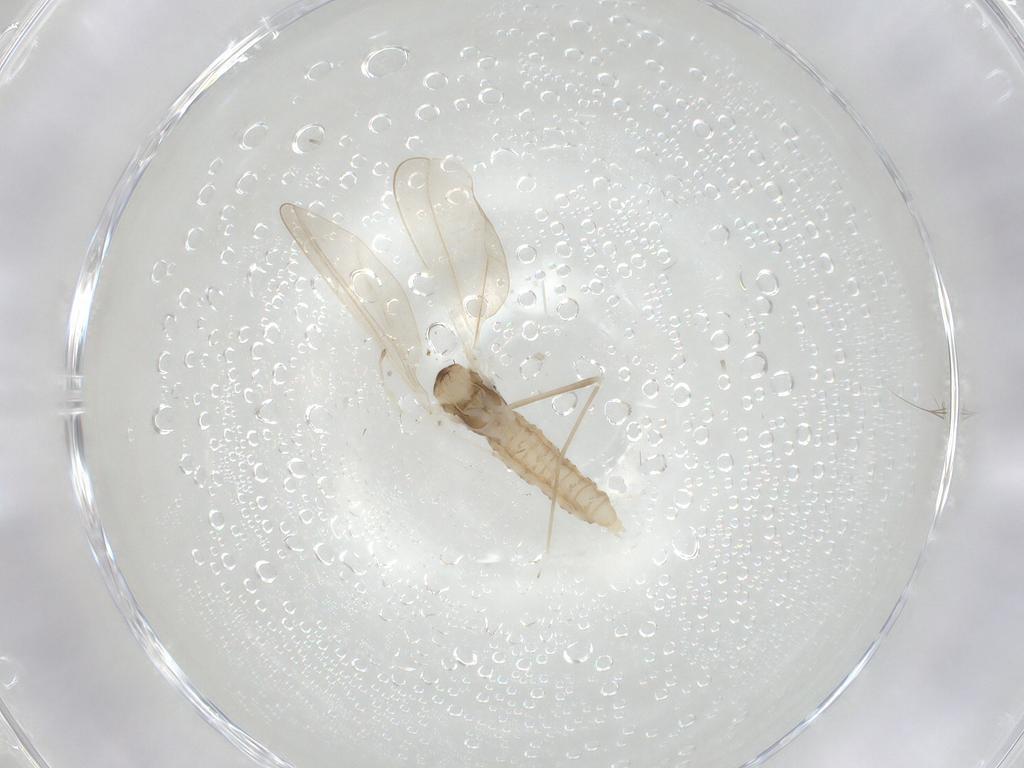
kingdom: Animalia
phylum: Arthropoda
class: Insecta
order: Diptera
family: Cecidomyiidae
